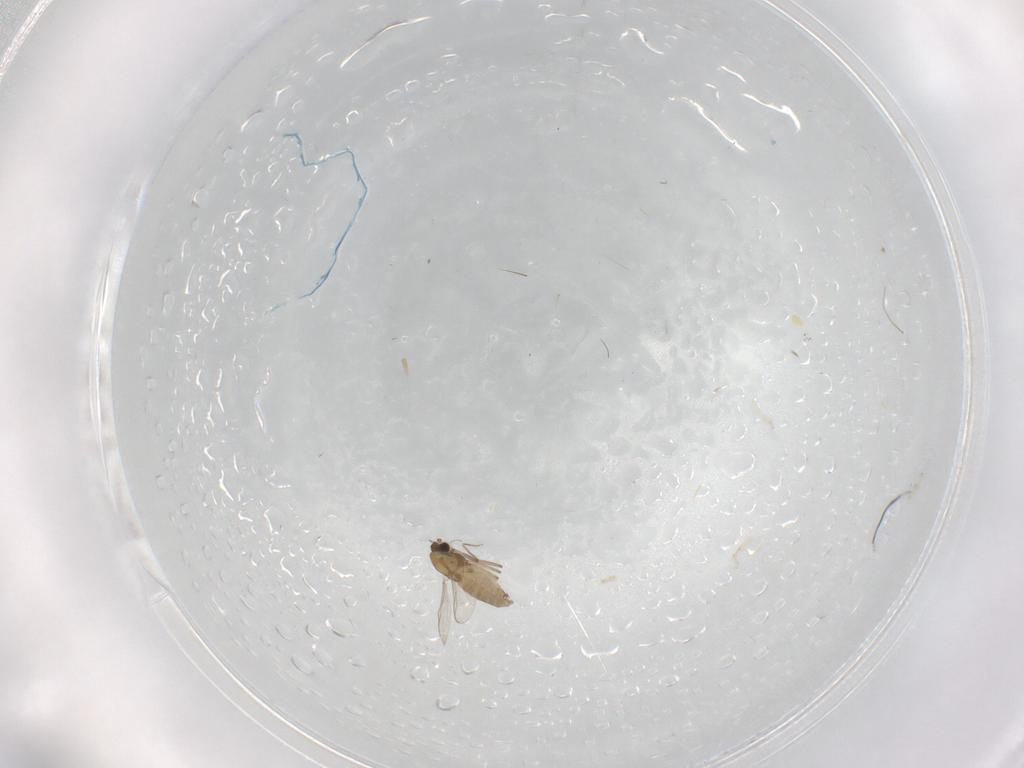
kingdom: Animalia
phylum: Arthropoda
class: Insecta
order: Diptera
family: Chironomidae
